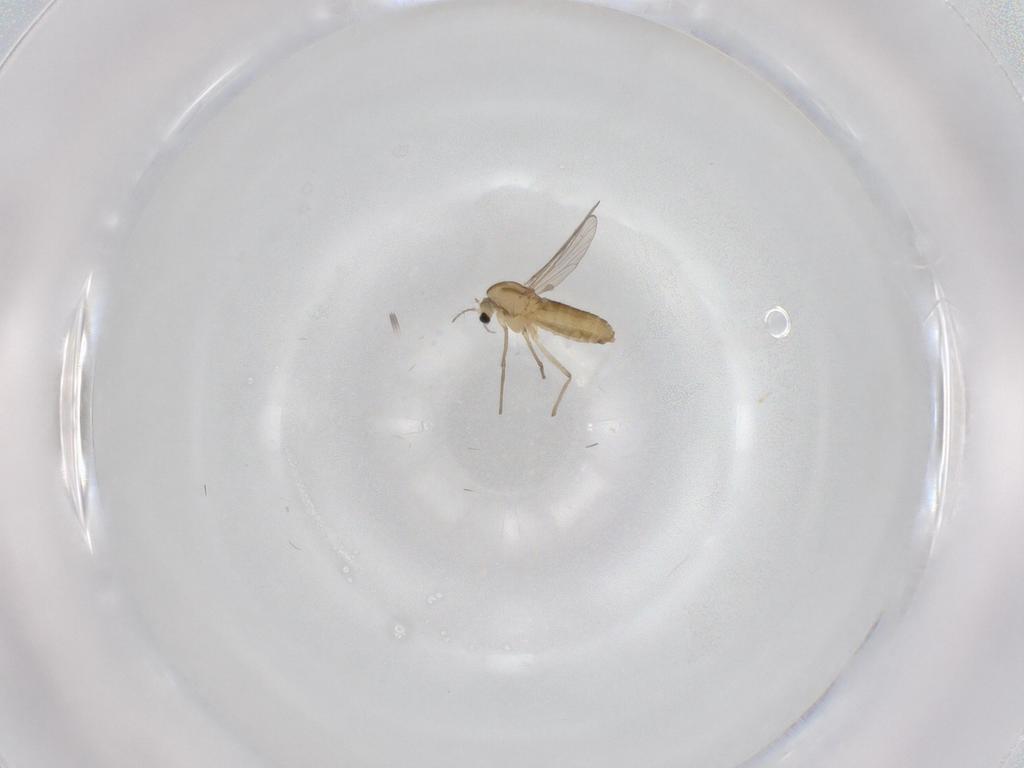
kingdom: Animalia
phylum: Arthropoda
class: Insecta
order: Diptera
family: Chironomidae
